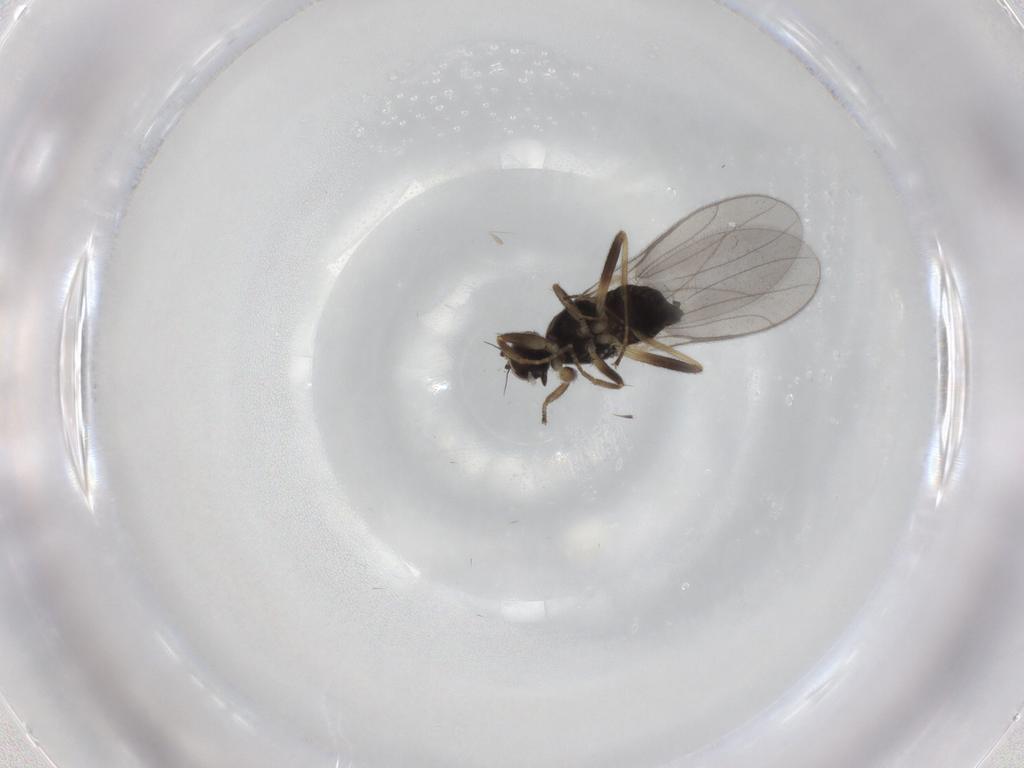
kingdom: Animalia
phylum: Arthropoda
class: Insecta
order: Diptera
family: Hybotidae
